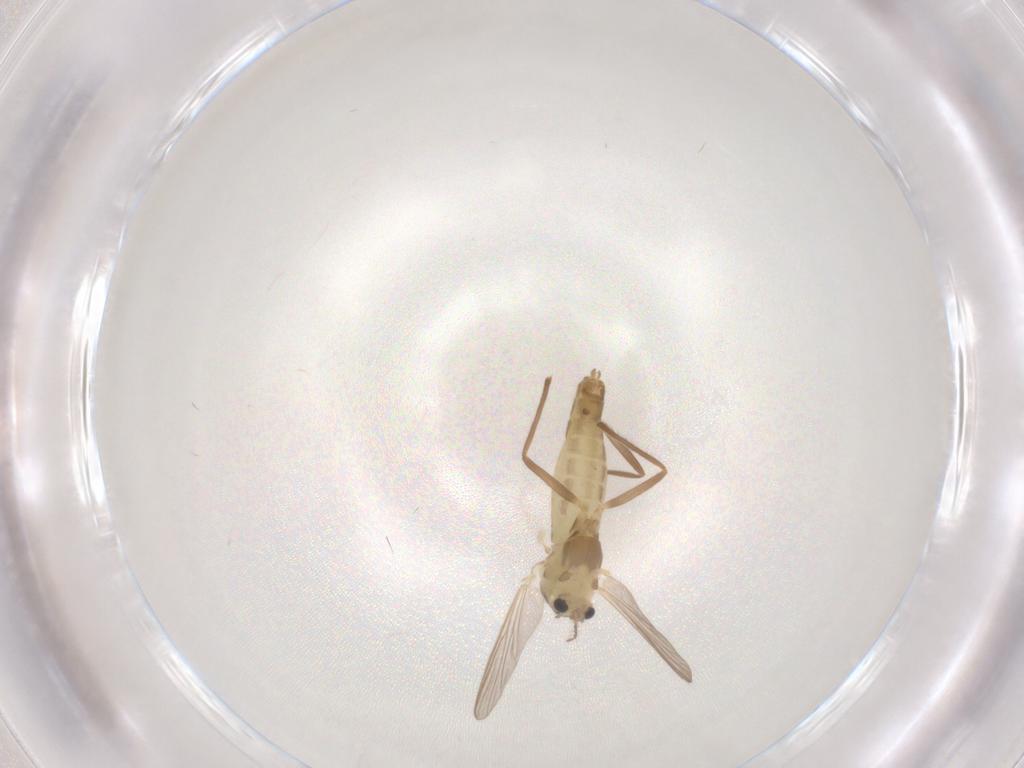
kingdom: Animalia
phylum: Arthropoda
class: Insecta
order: Diptera
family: Chironomidae
